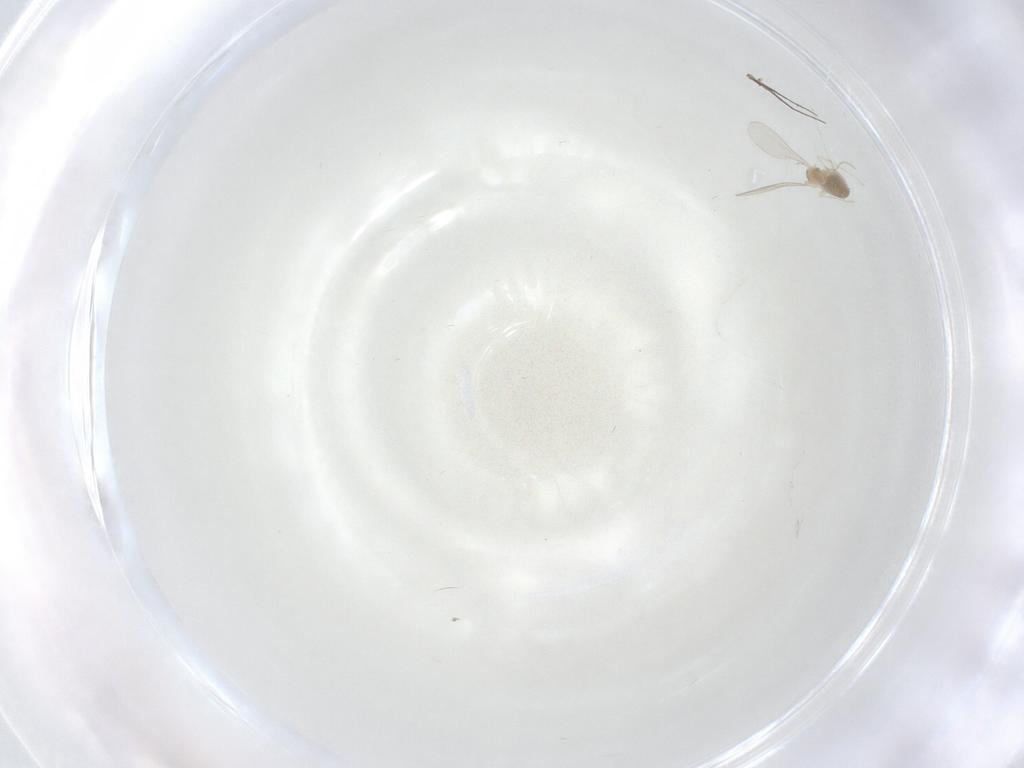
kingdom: Animalia
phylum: Arthropoda
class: Insecta
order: Diptera
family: Cecidomyiidae
